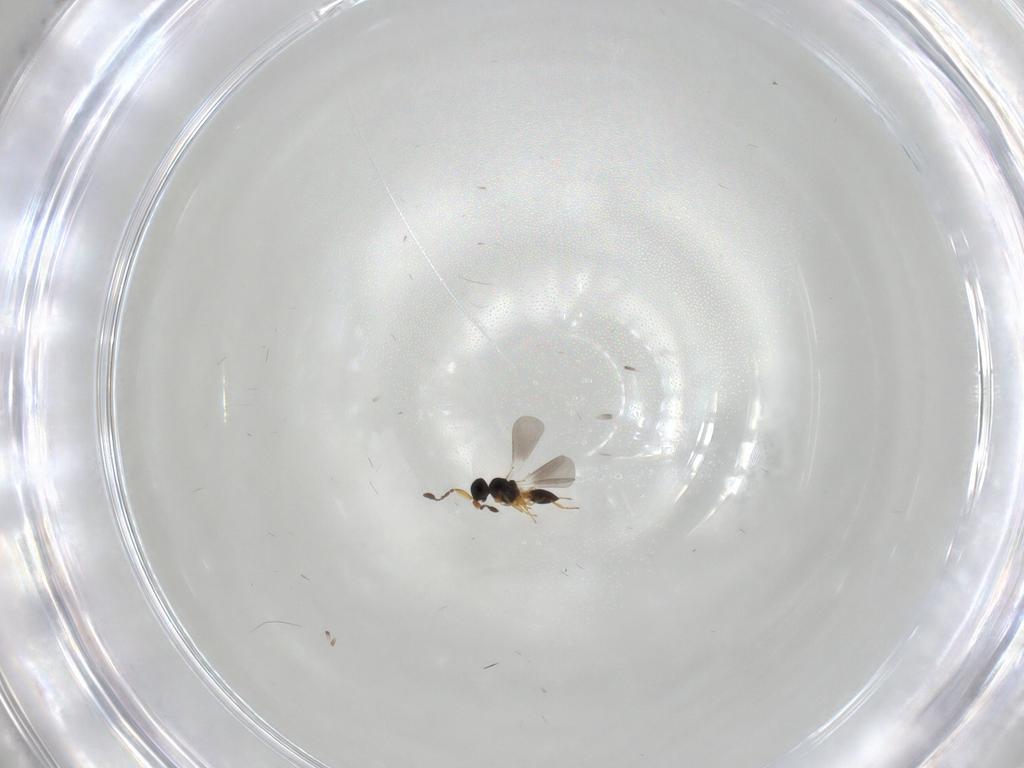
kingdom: Animalia
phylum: Arthropoda
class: Insecta
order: Hymenoptera
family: Platygastridae
